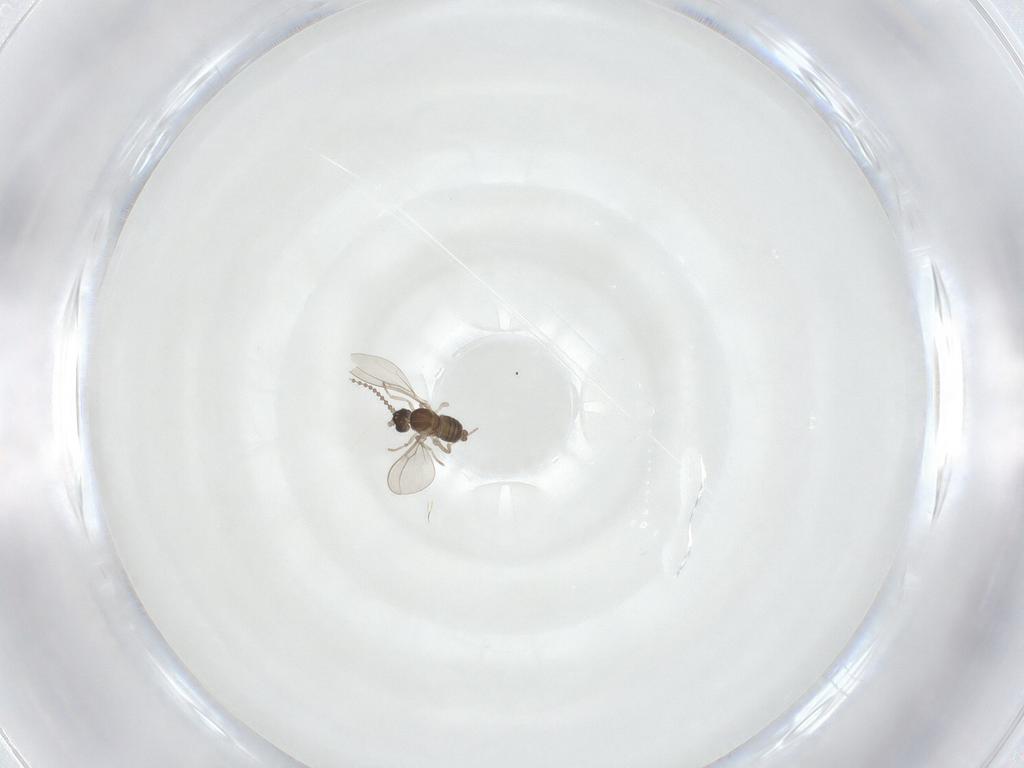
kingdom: Animalia
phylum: Arthropoda
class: Insecta
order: Diptera
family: Cecidomyiidae
